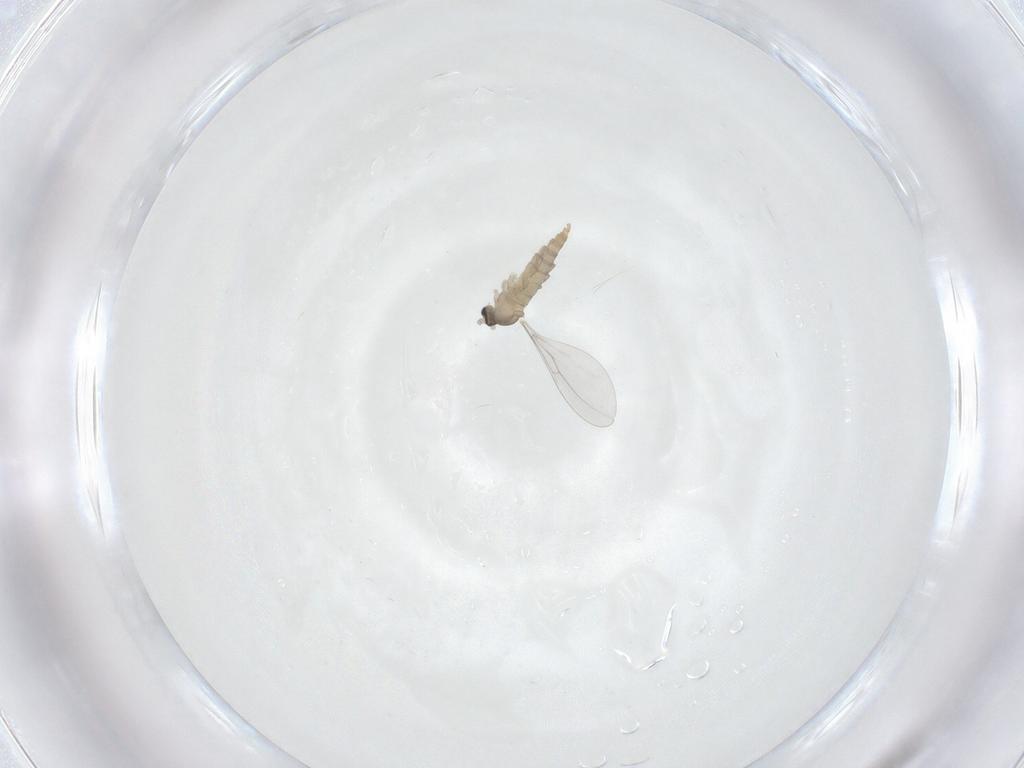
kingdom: Animalia
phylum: Arthropoda
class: Insecta
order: Diptera
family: Cecidomyiidae
